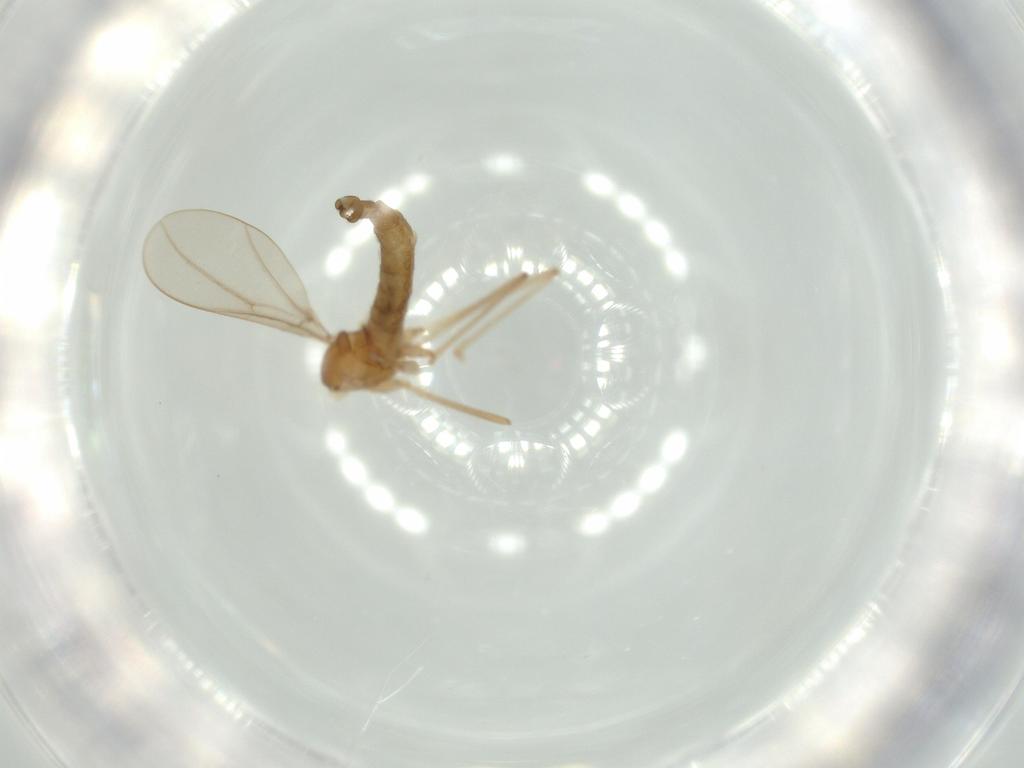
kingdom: Animalia
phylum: Arthropoda
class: Insecta
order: Diptera
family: Cecidomyiidae
